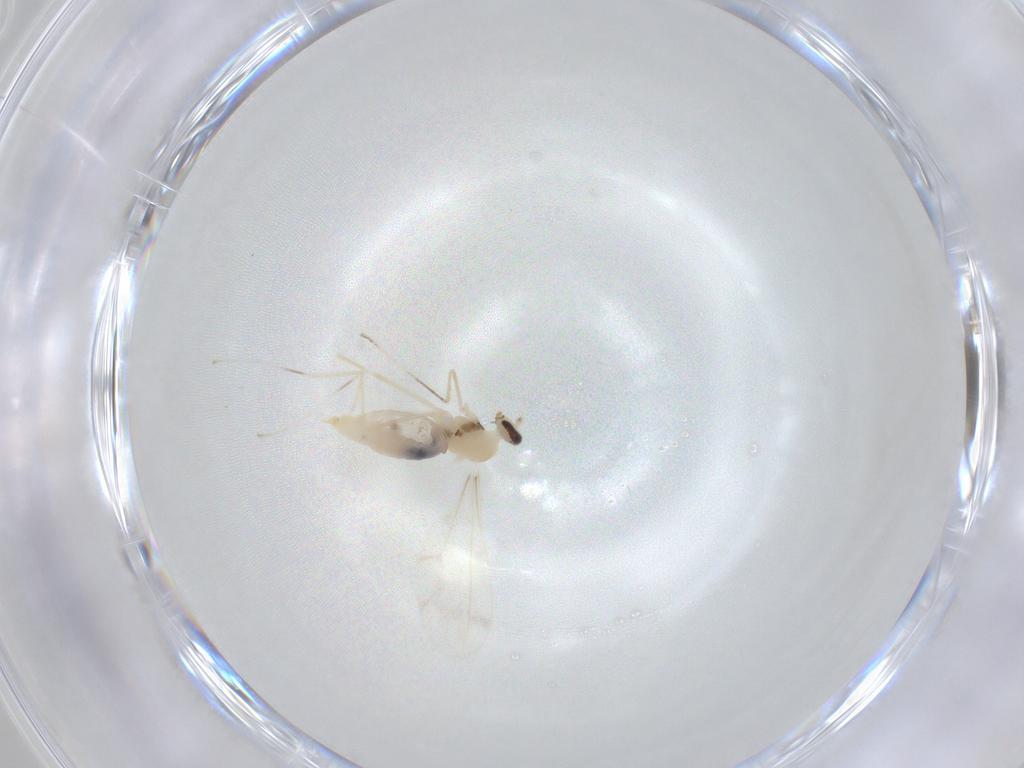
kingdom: Animalia
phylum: Arthropoda
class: Insecta
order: Diptera
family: Cecidomyiidae
